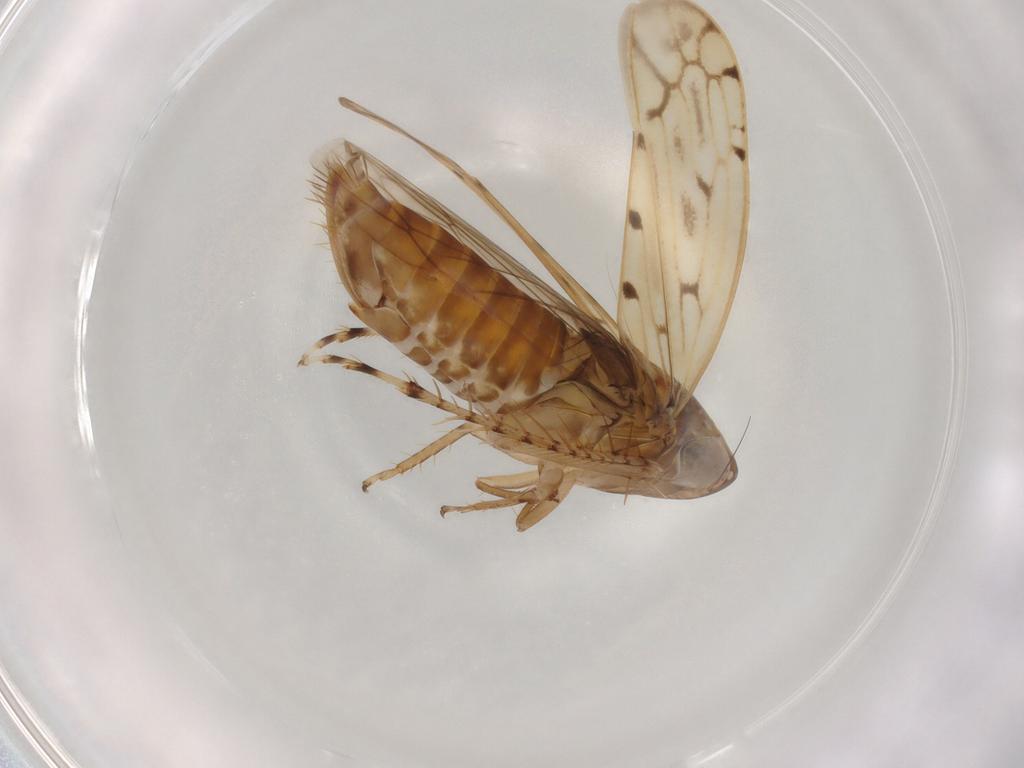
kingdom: Animalia
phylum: Arthropoda
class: Insecta
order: Hemiptera
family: Cicadellidae
